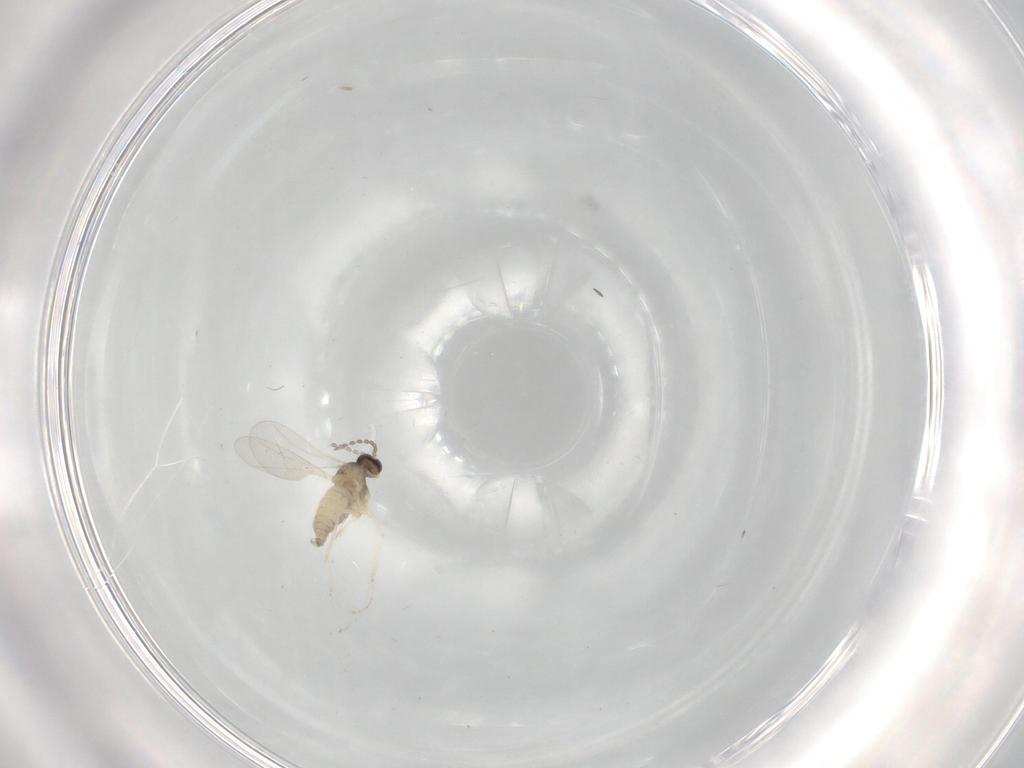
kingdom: Animalia
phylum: Arthropoda
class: Insecta
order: Diptera
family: Cecidomyiidae
